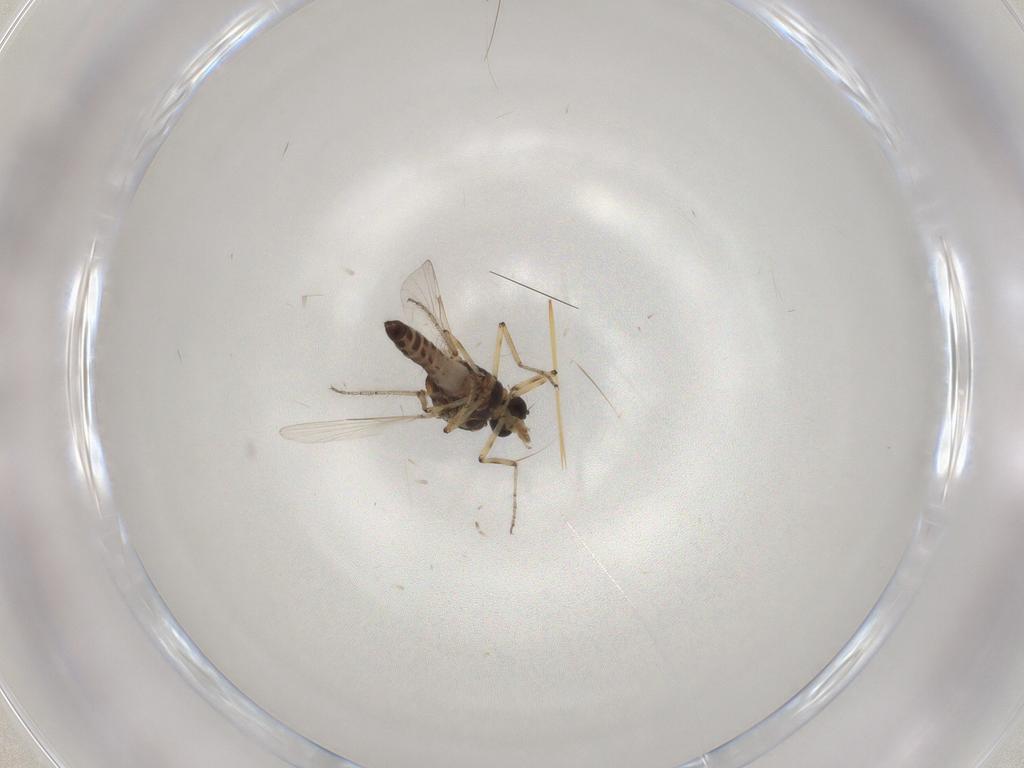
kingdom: Animalia
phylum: Arthropoda
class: Insecta
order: Diptera
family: Ceratopogonidae
